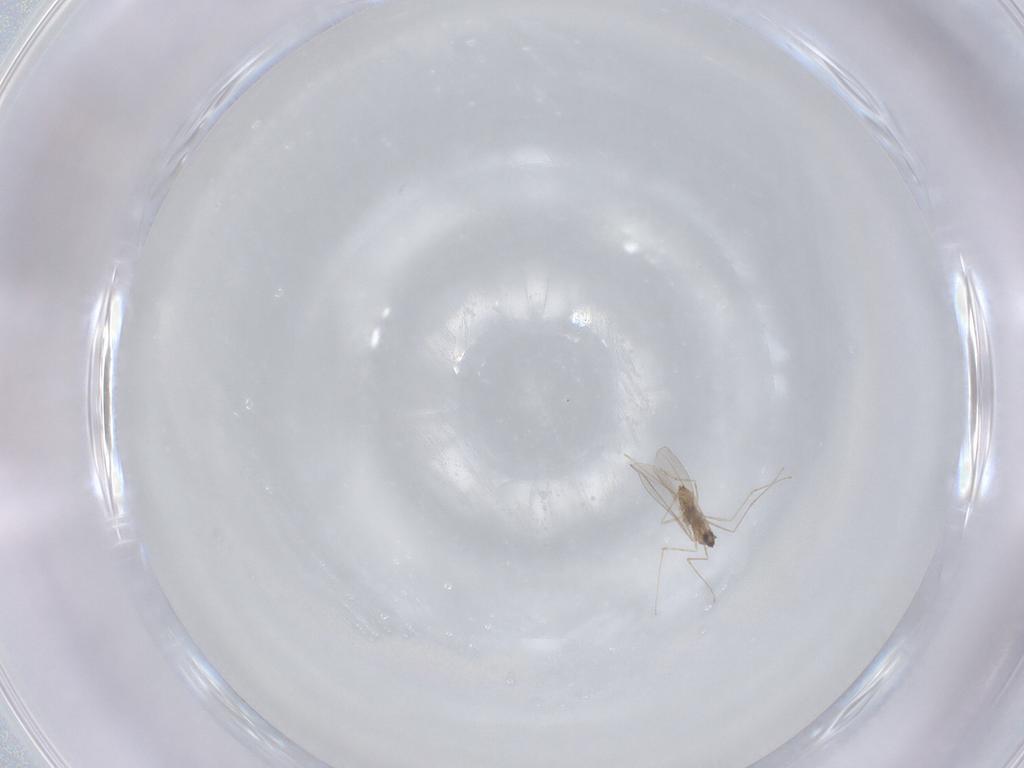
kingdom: Animalia
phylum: Arthropoda
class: Insecta
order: Diptera
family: Cecidomyiidae
